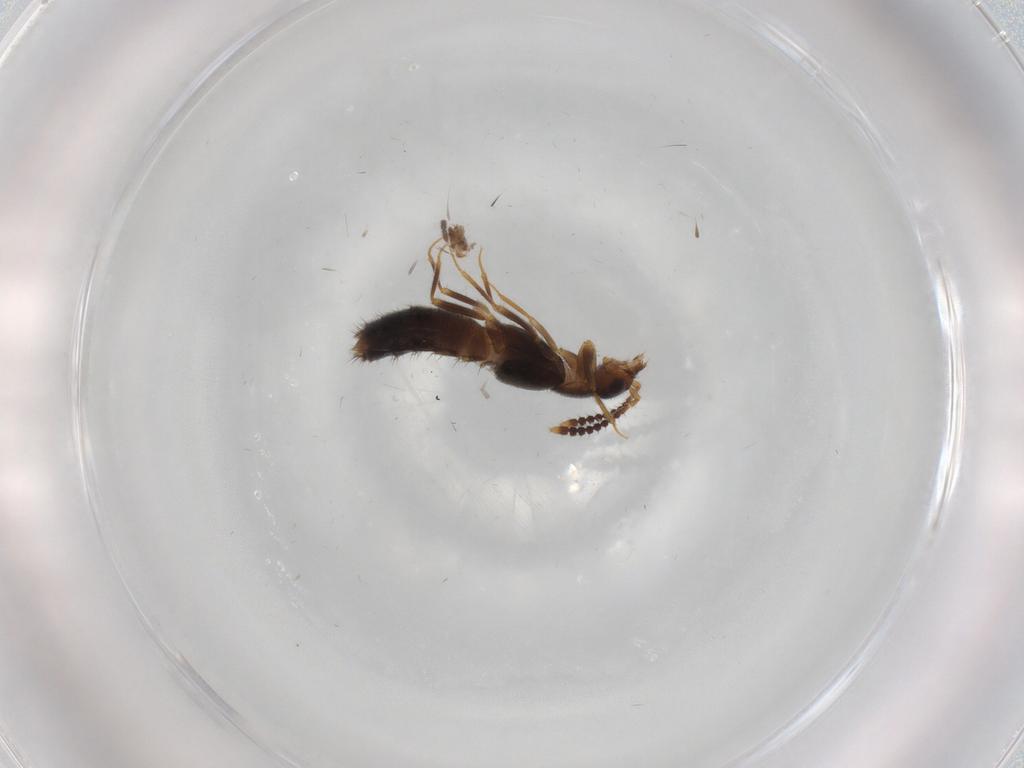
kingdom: Animalia
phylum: Arthropoda
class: Insecta
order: Coleoptera
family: Staphylinidae
